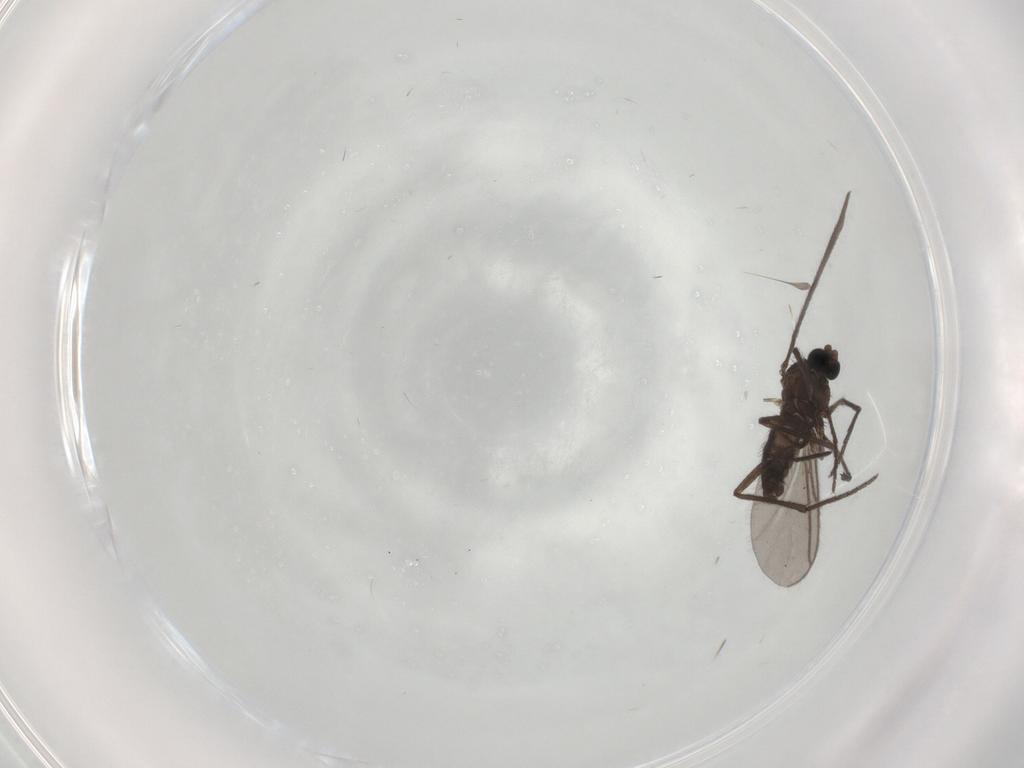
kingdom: Animalia
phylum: Arthropoda
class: Insecta
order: Diptera
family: Sciaridae
